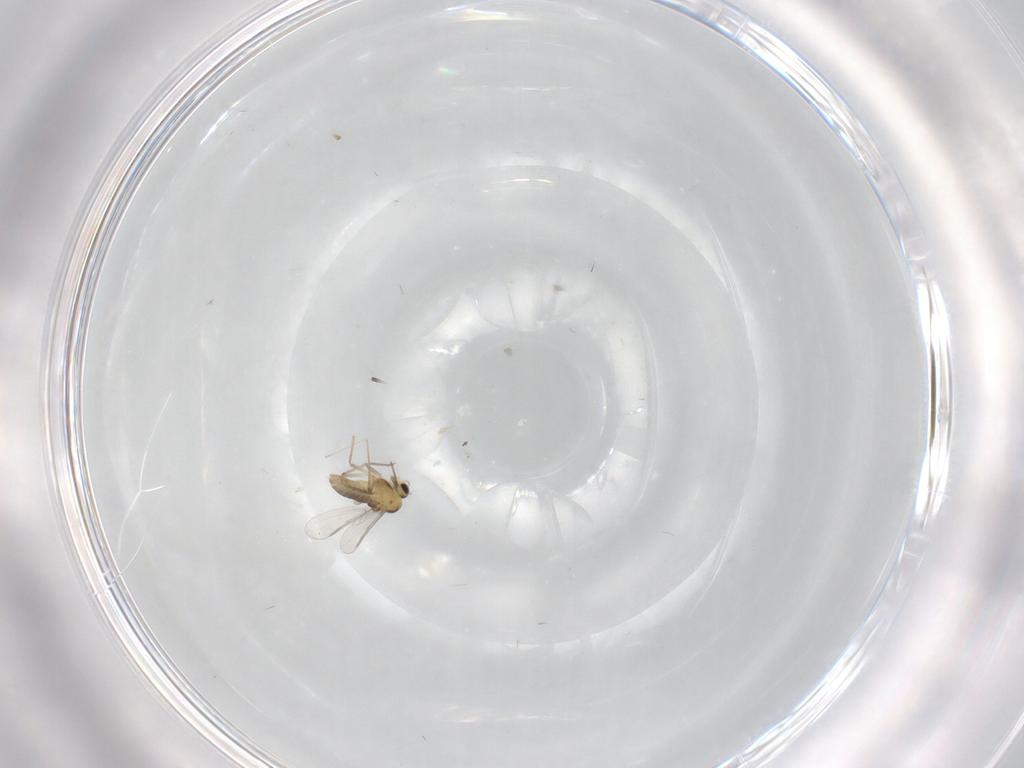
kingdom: Animalia
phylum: Arthropoda
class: Insecta
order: Diptera
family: Chironomidae
